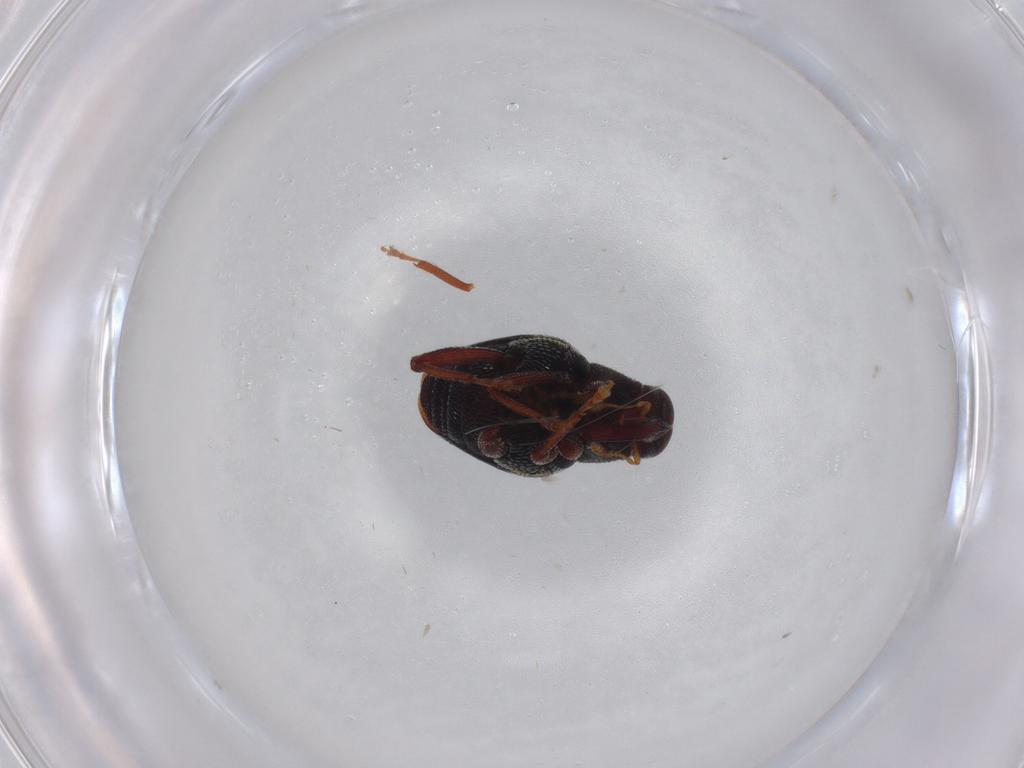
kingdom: Animalia
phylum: Arthropoda
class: Insecta
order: Coleoptera
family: Curculionidae
